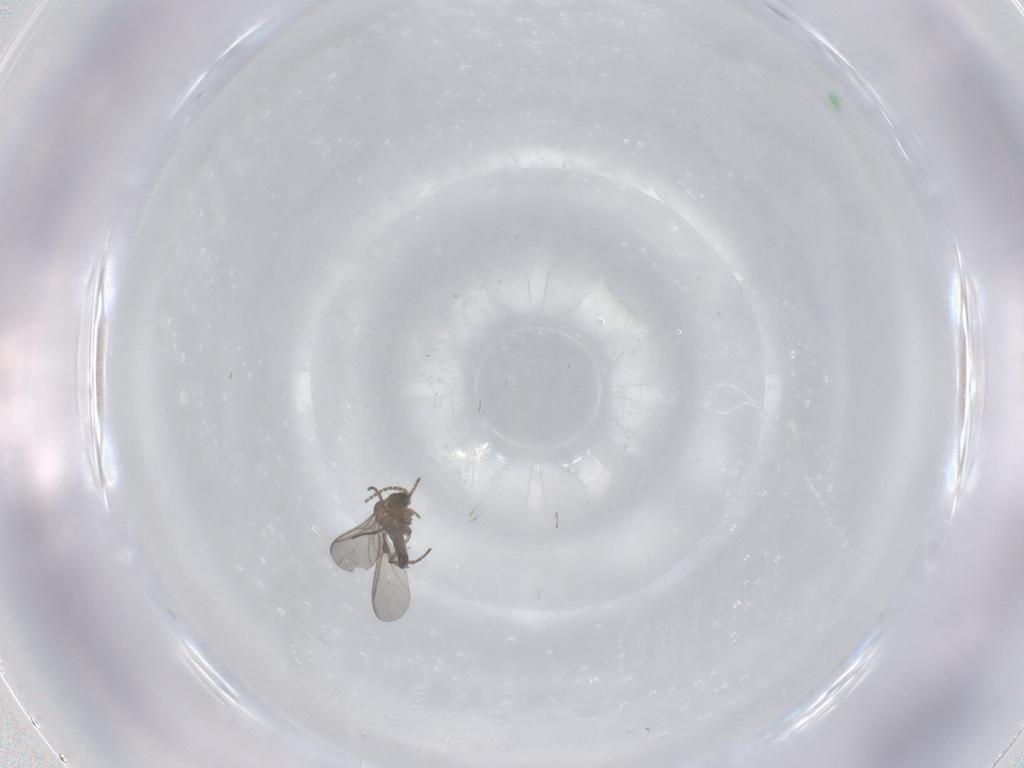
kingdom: Animalia
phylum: Arthropoda
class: Insecta
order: Diptera
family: Sciaridae
